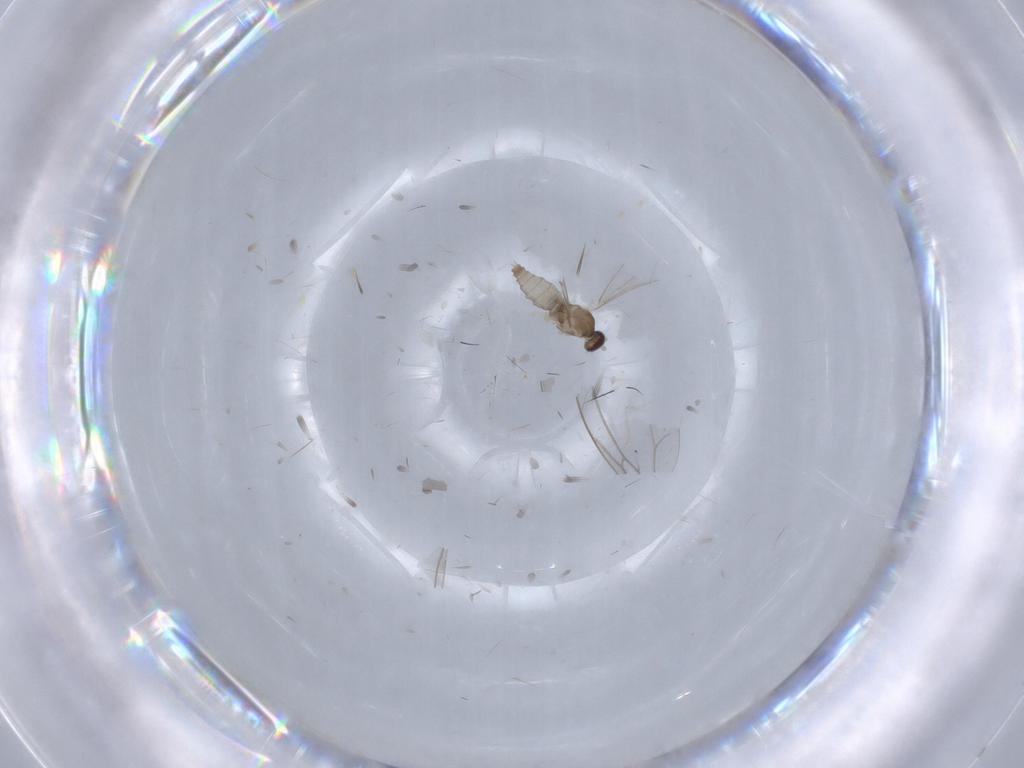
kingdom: Animalia
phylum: Arthropoda
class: Insecta
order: Diptera
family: Cecidomyiidae
